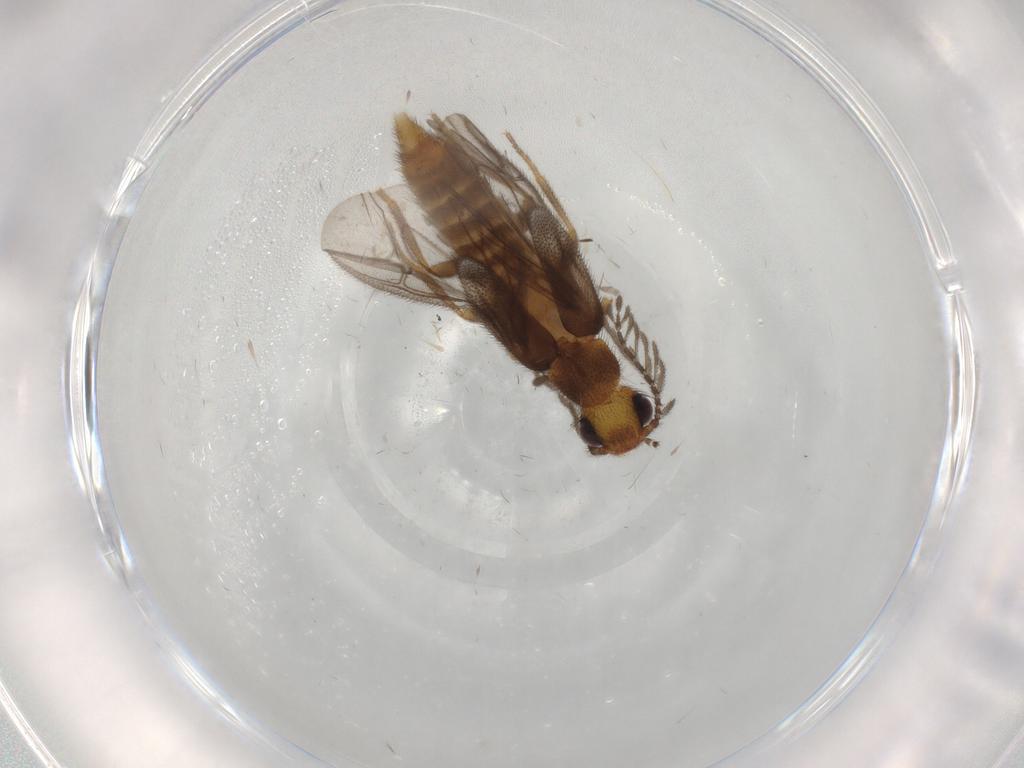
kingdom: Animalia
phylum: Arthropoda
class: Insecta
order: Coleoptera
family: Phengodidae
